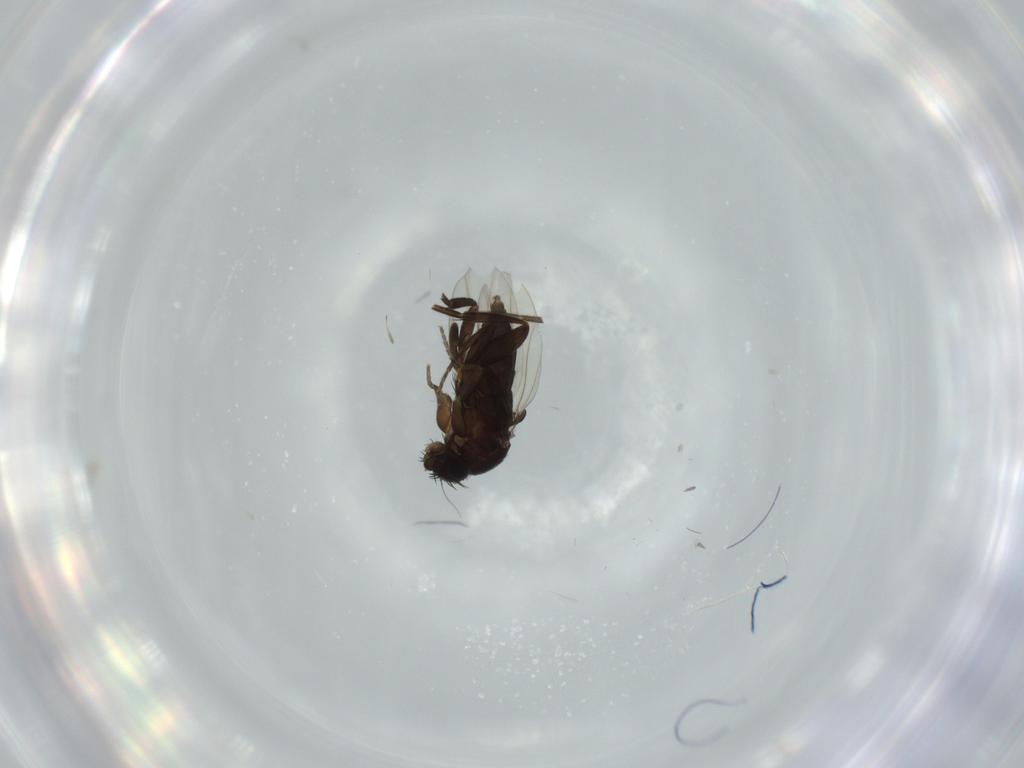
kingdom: Animalia
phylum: Arthropoda
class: Insecta
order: Diptera
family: Phoridae
